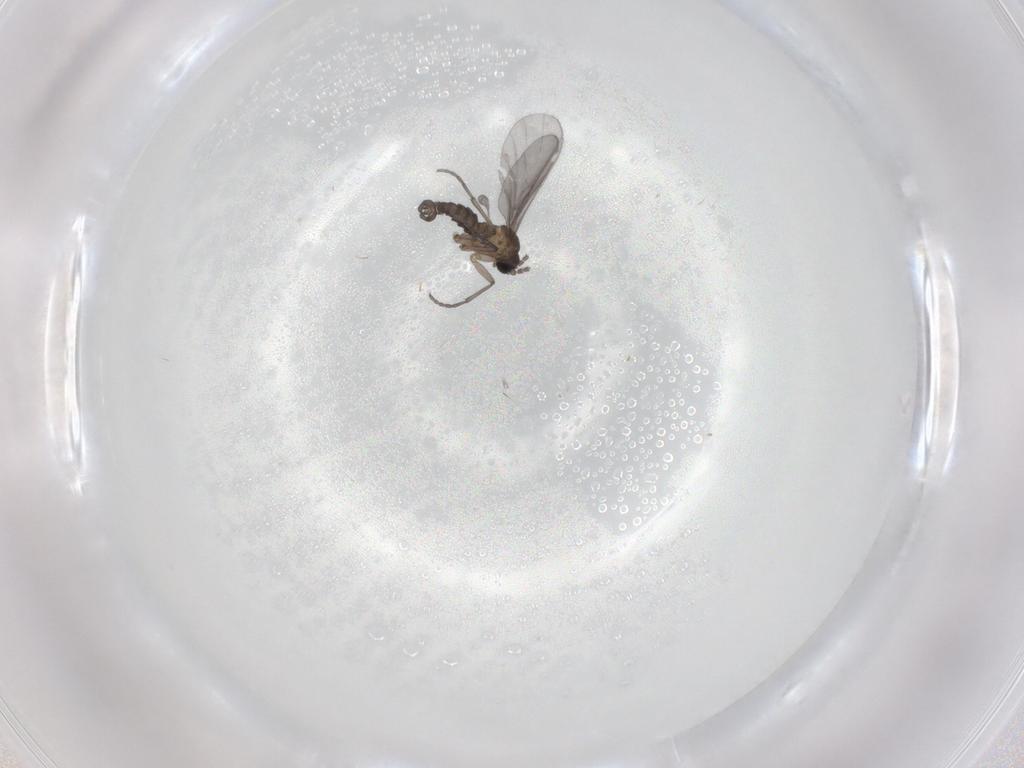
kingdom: Animalia
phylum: Arthropoda
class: Insecta
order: Diptera
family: Sciaridae
